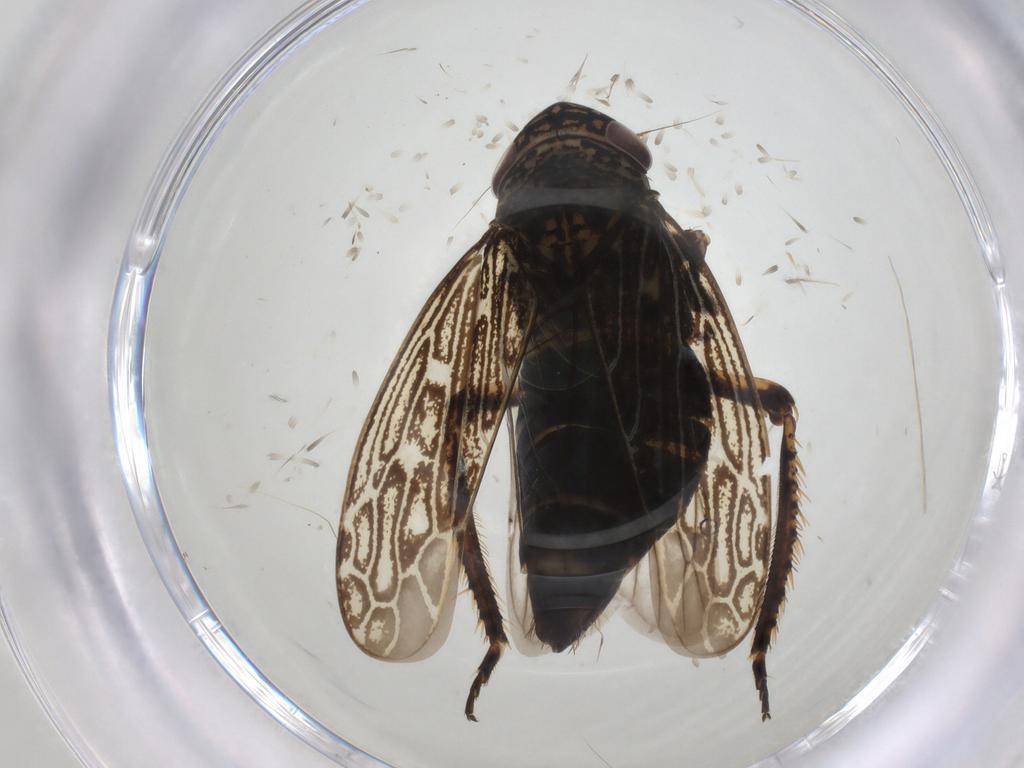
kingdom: Animalia
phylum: Arthropoda
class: Insecta
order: Hemiptera
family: Cicadellidae
